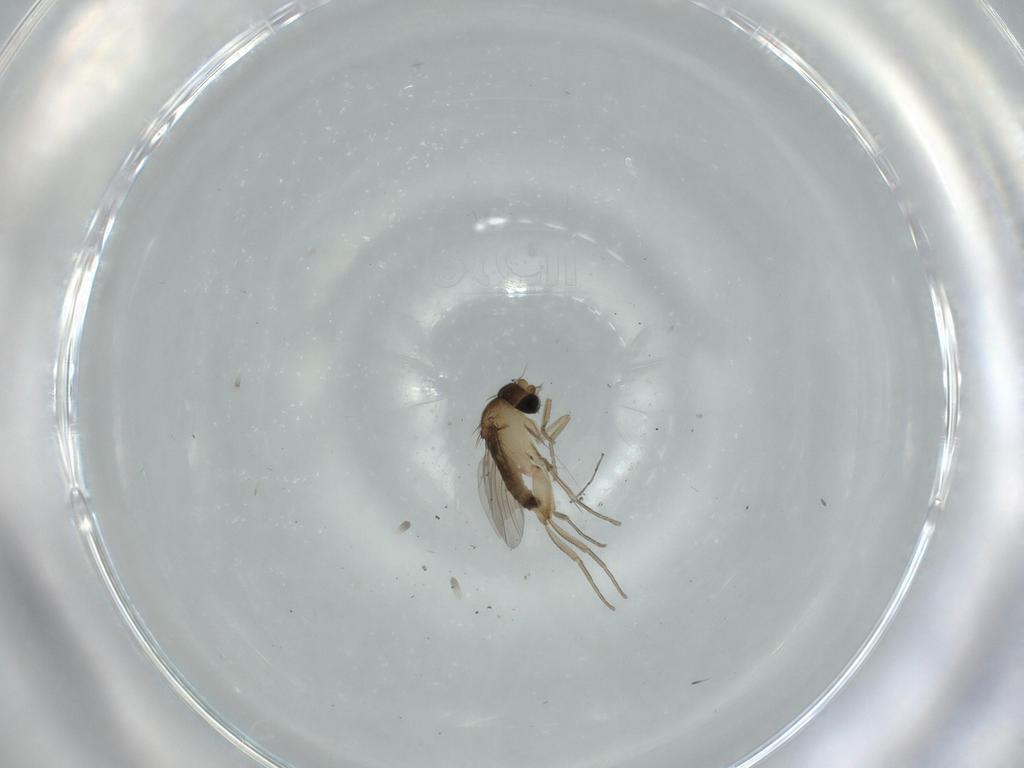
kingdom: Animalia
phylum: Arthropoda
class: Insecta
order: Diptera
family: Phoridae
